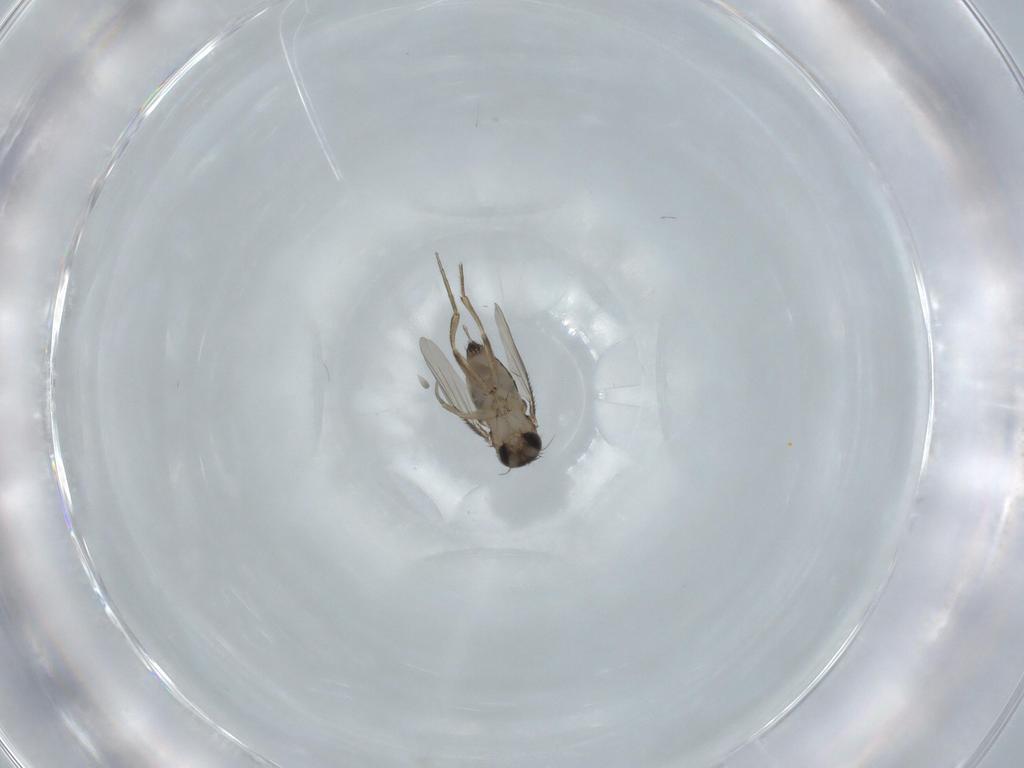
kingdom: Animalia
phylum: Arthropoda
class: Insecta
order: Diptera
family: Phoridae
